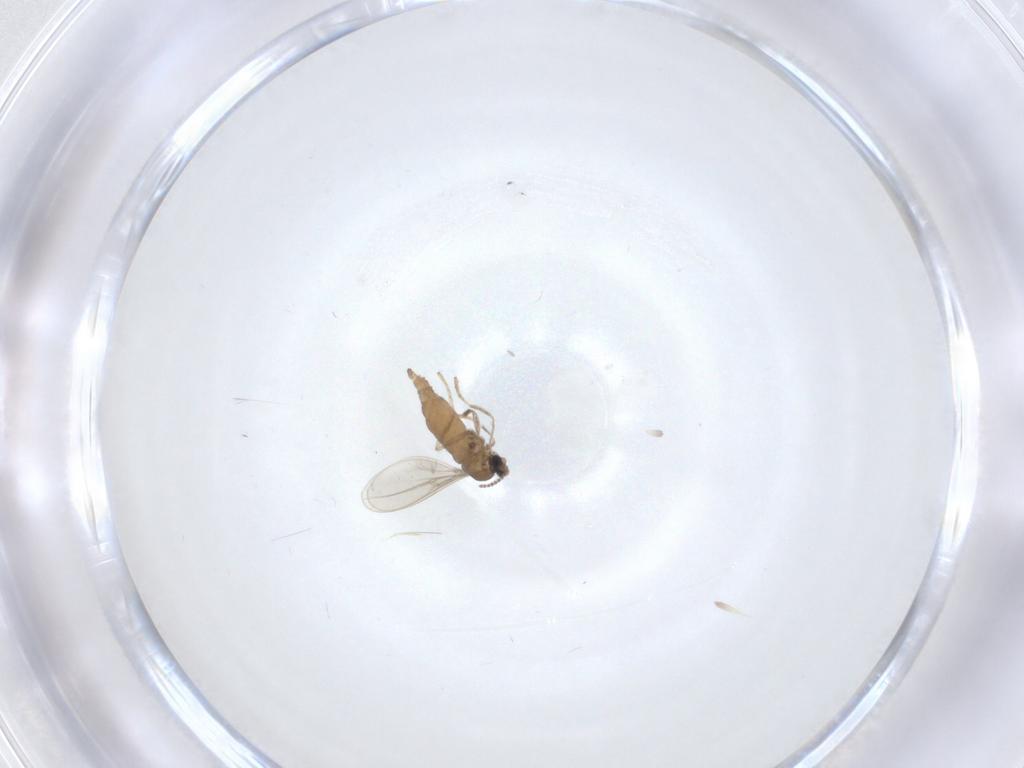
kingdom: Animalia
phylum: Arthropoda
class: Insecta
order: Diptera
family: Cecidomyiidae
